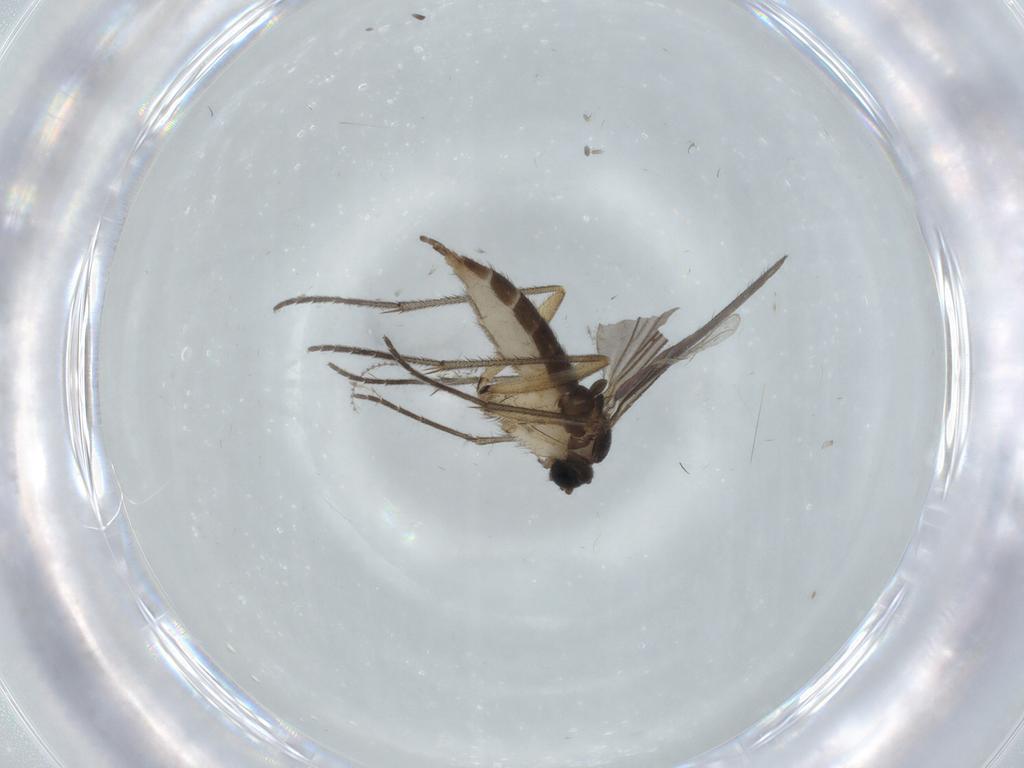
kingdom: Animalia
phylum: Arthropoda
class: Insecta
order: Diptera
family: Sciaridae
